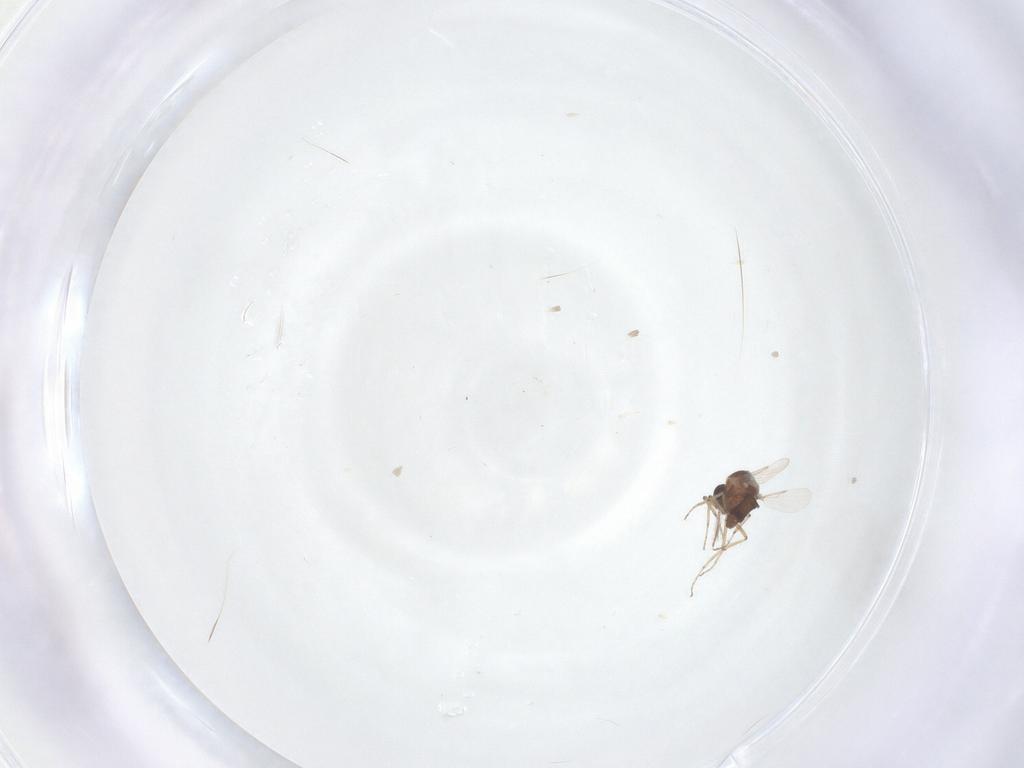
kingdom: Animalia
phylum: Arthropoda
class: Insecta
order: Diptera
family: Ceratopogonidae
